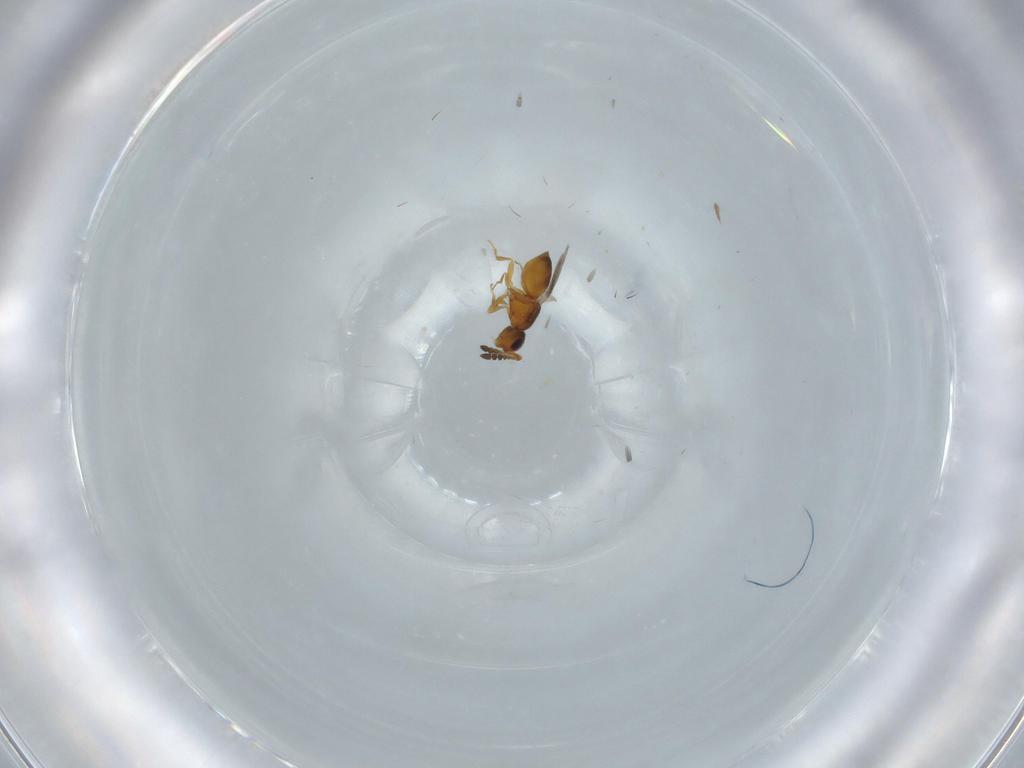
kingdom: Animalia
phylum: Arthropoda
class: Insecta
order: Hymenoptera
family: Ceraphronidae
